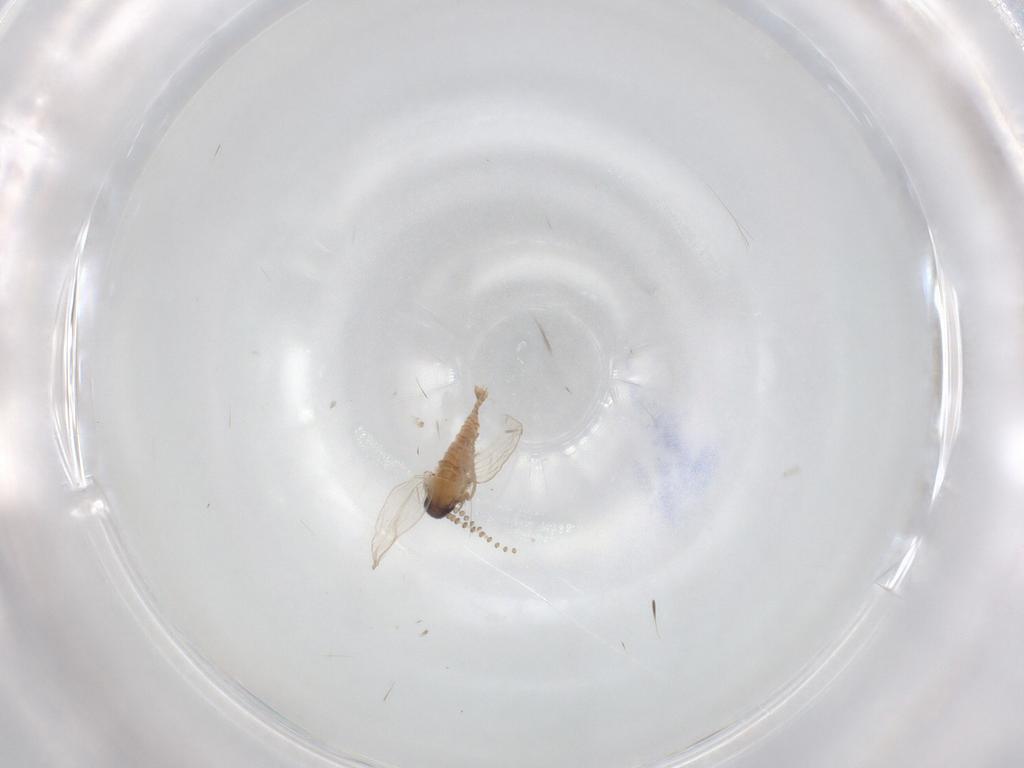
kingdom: Animalia
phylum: Arthropoda
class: Insecta
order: Diptera
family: Psychodidae
